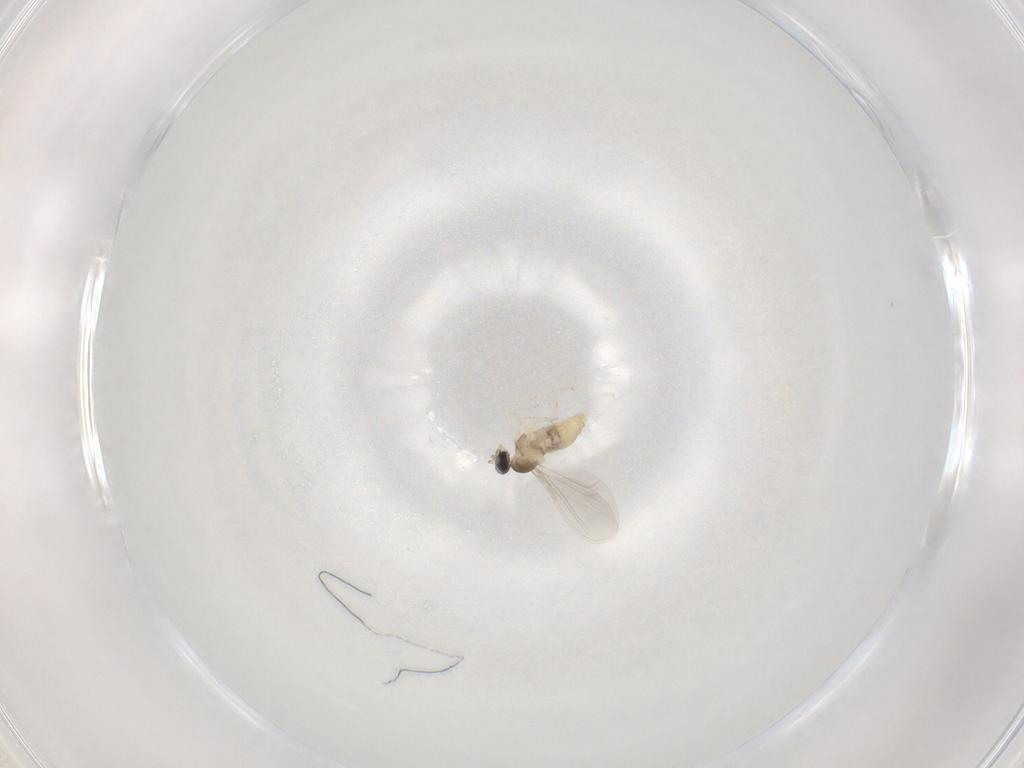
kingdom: Animalia
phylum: Arthropoda
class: Insecta
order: Diptera
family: Cecidomyiidae
